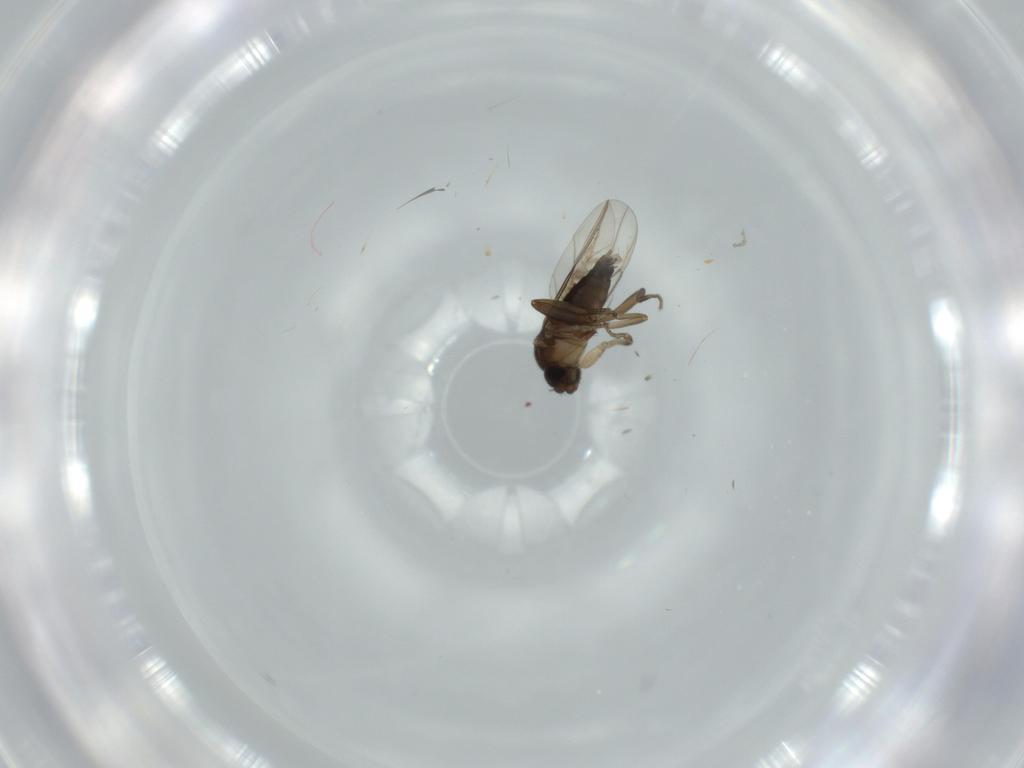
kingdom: Animalia
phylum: Arthropoda
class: Insecta
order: Diptera
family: Phoridae
